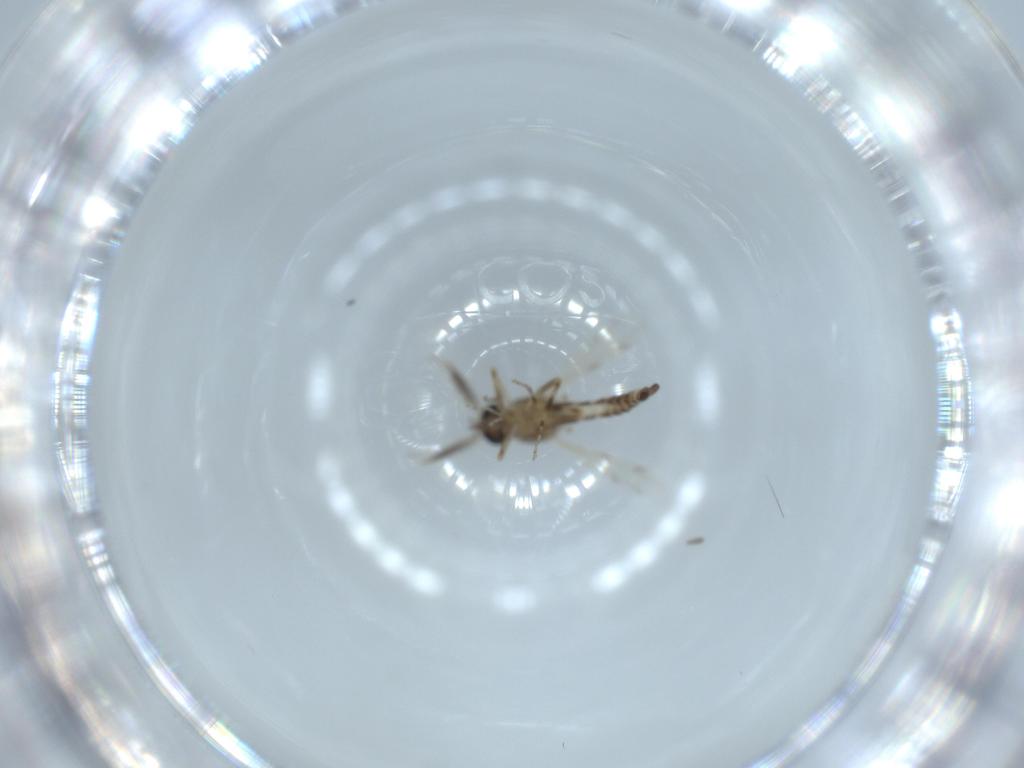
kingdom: Animalia
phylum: Arthropoda
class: Insecta
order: Diptera
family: Ceratopogonidae
